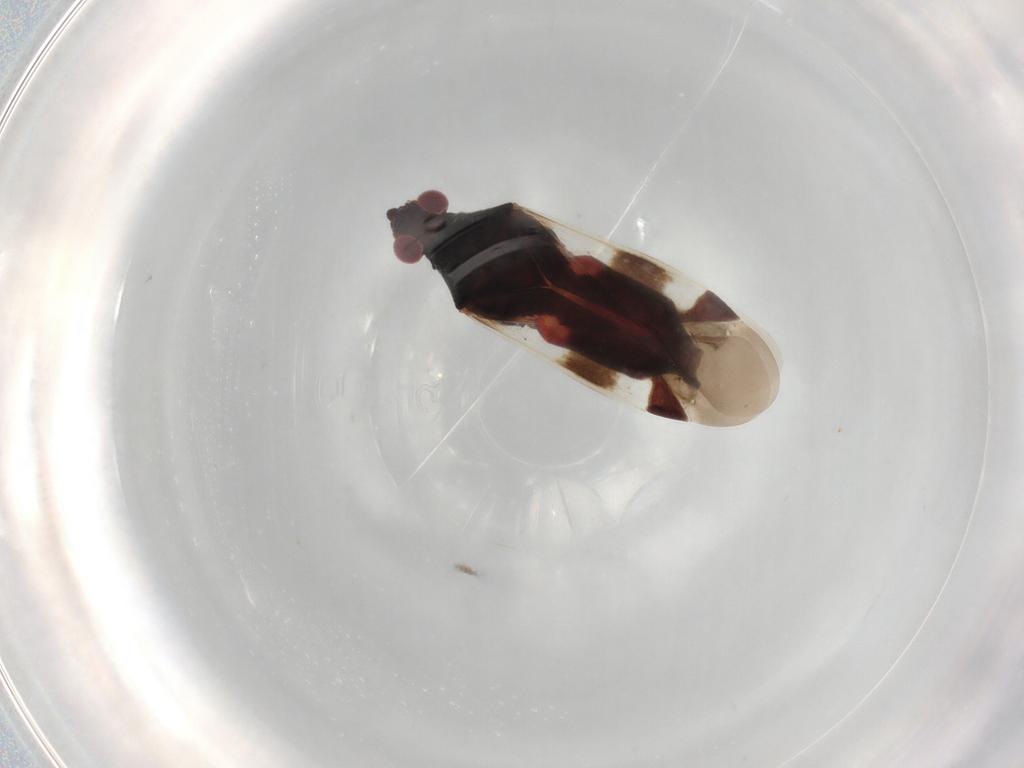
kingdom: Animalia
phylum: Arthropoda
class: Insecta
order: Hemiptera
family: Miridae
